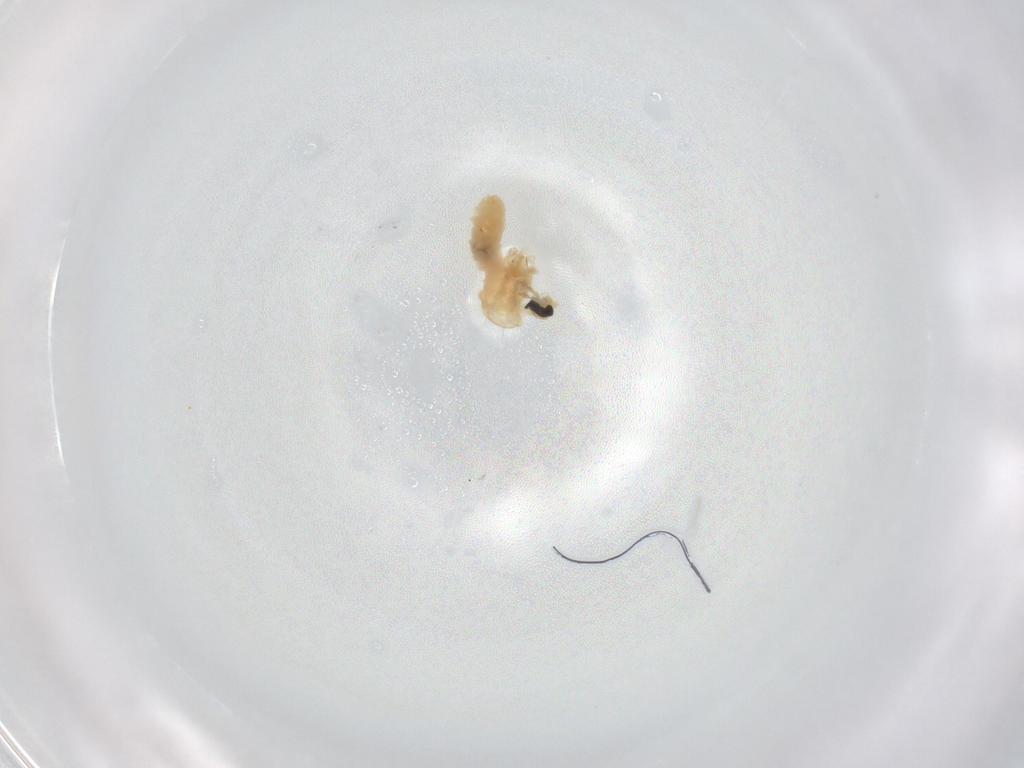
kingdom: Animalia
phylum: Arthropoda
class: Insecta
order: Diptera
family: Cecidomyiidae
